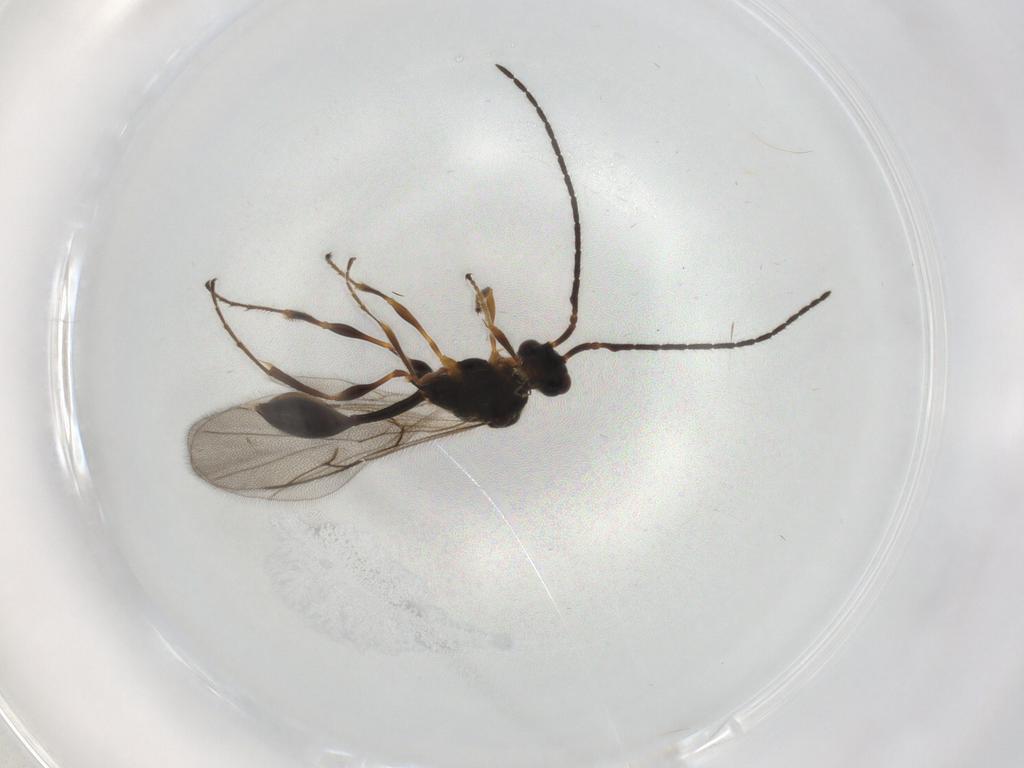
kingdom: Animalia
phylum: Arthropoda
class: Insecta
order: Hymenoptera
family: Diapriidae
